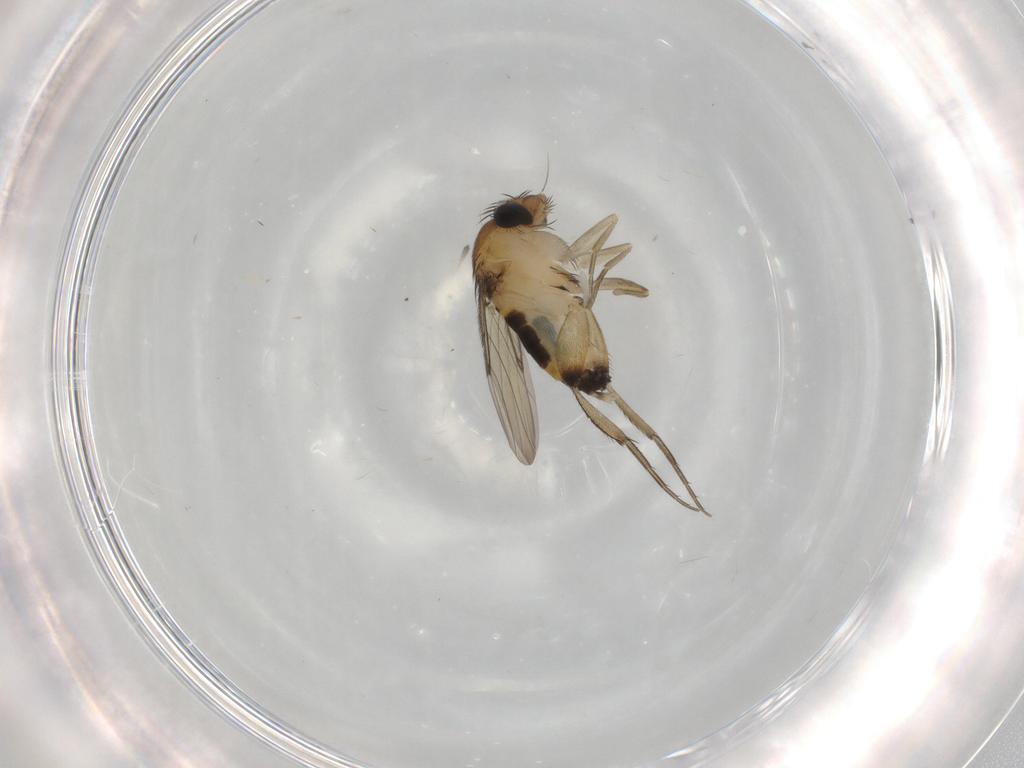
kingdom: Animalia
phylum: Arthropoda
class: Insecta
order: Diptera
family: Phoridae
